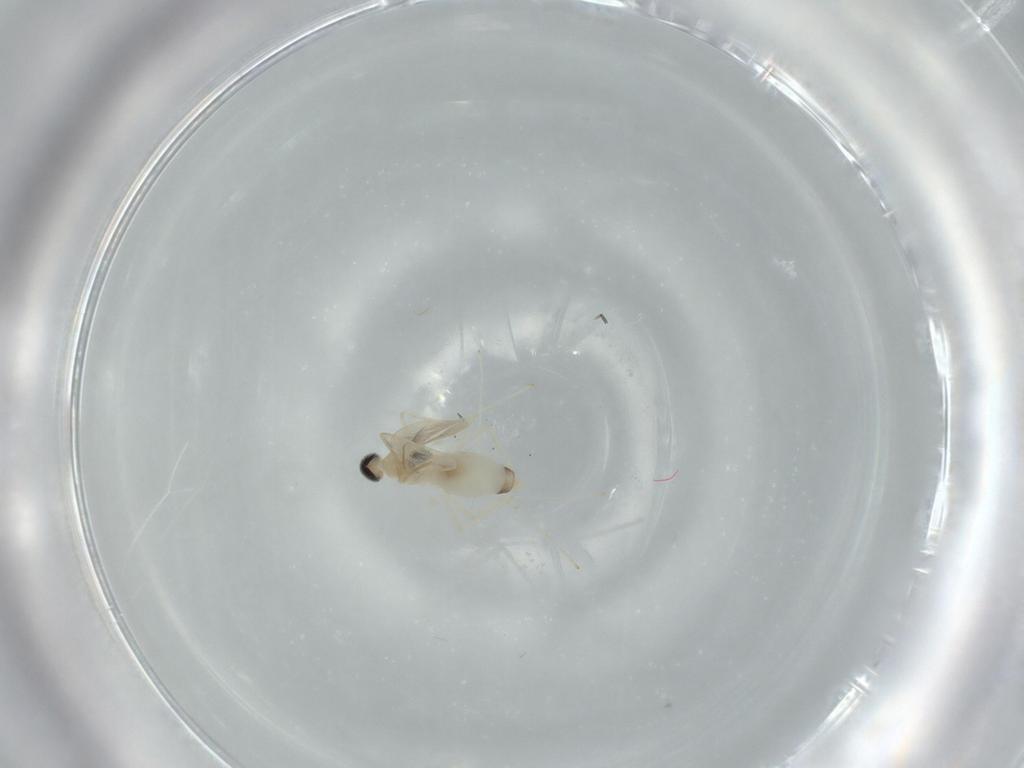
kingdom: Animalia
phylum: Arthropoda
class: Insecta
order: Diptera
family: Cecidomyiidae
